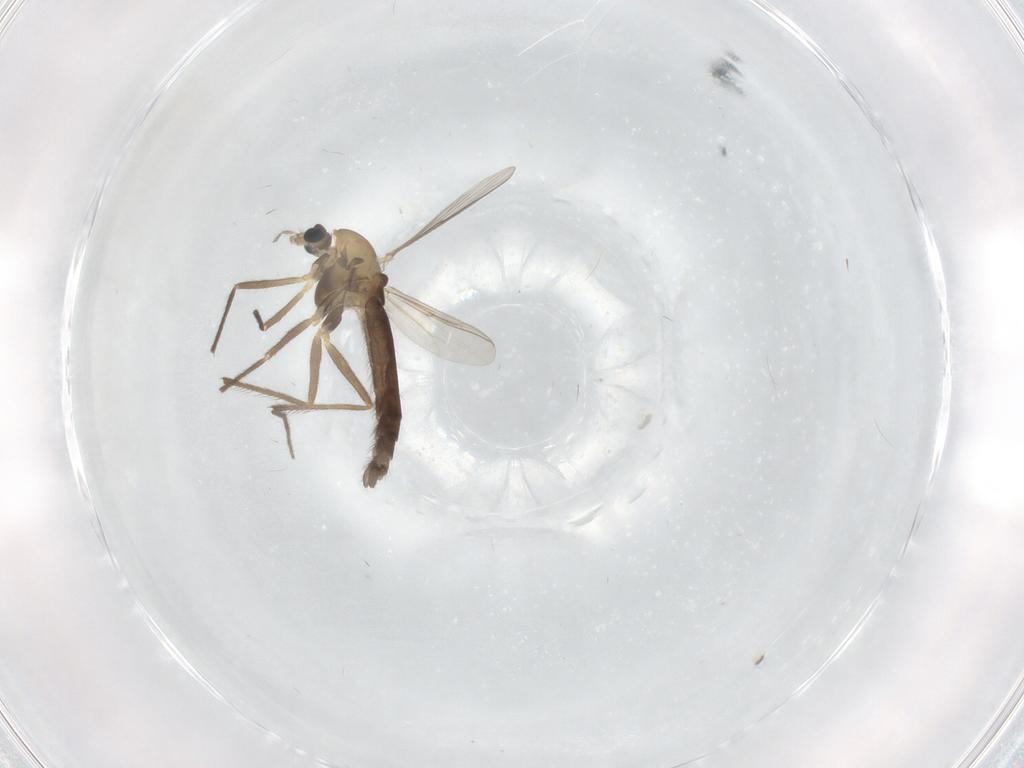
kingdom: Animalia
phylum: Arthropoda
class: Insecta
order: Diptera
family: Chironomidae
